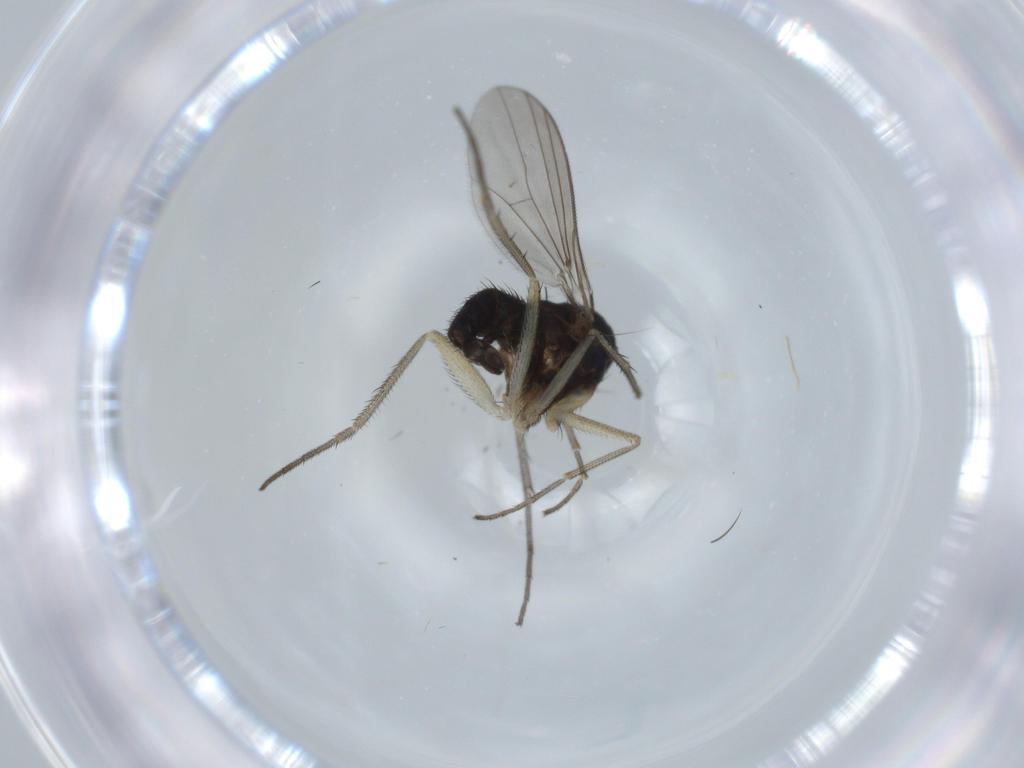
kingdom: Animalia
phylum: Arthropoda
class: Insecta
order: Diptera
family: Dolichopodidae
